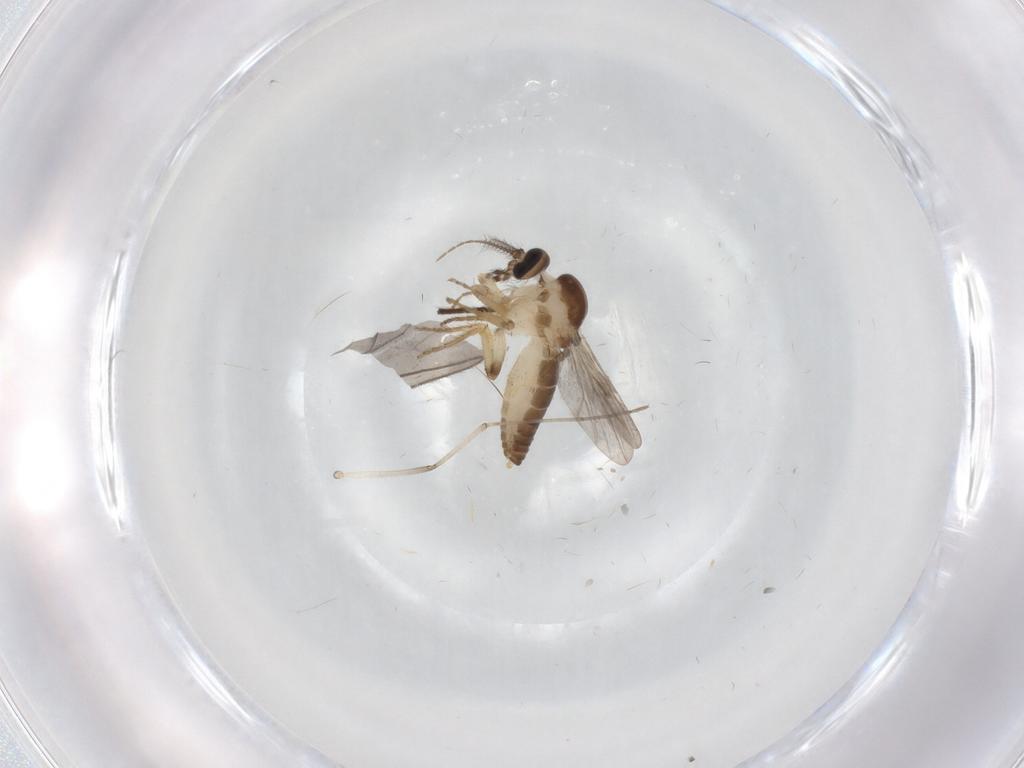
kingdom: Animalia
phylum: Arthropoda
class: Insecta
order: Diptera
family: Ceratopogonidae
